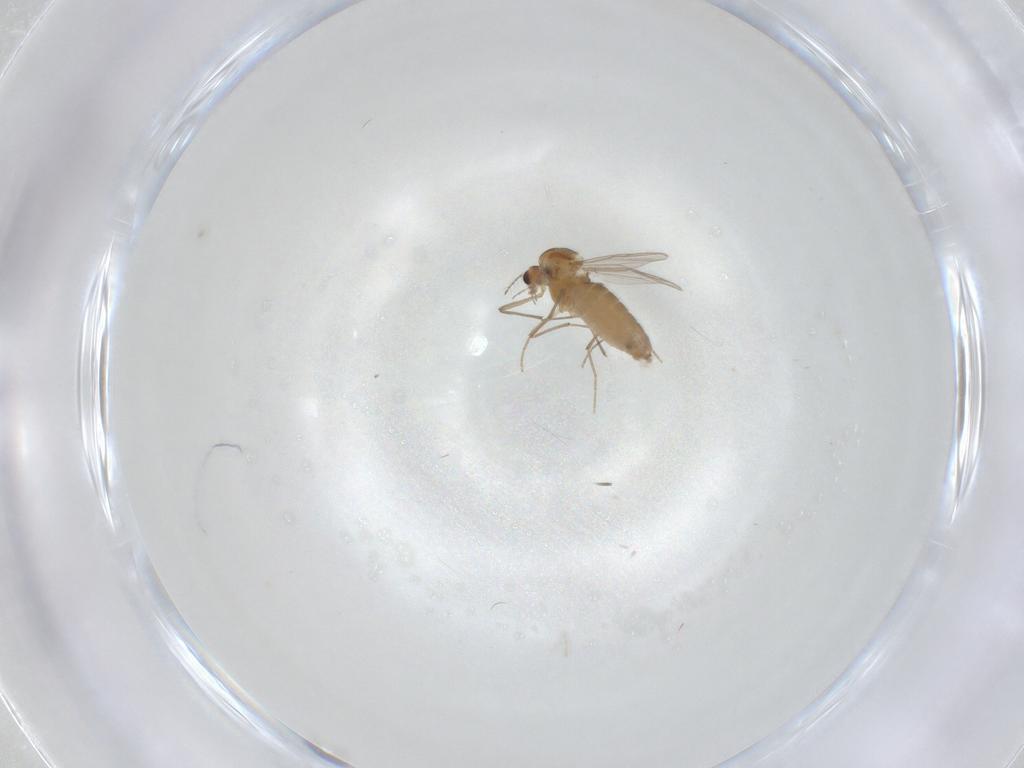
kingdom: Animalia
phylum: Arthropoda
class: Insecta
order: Diptera
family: Chironomidae
